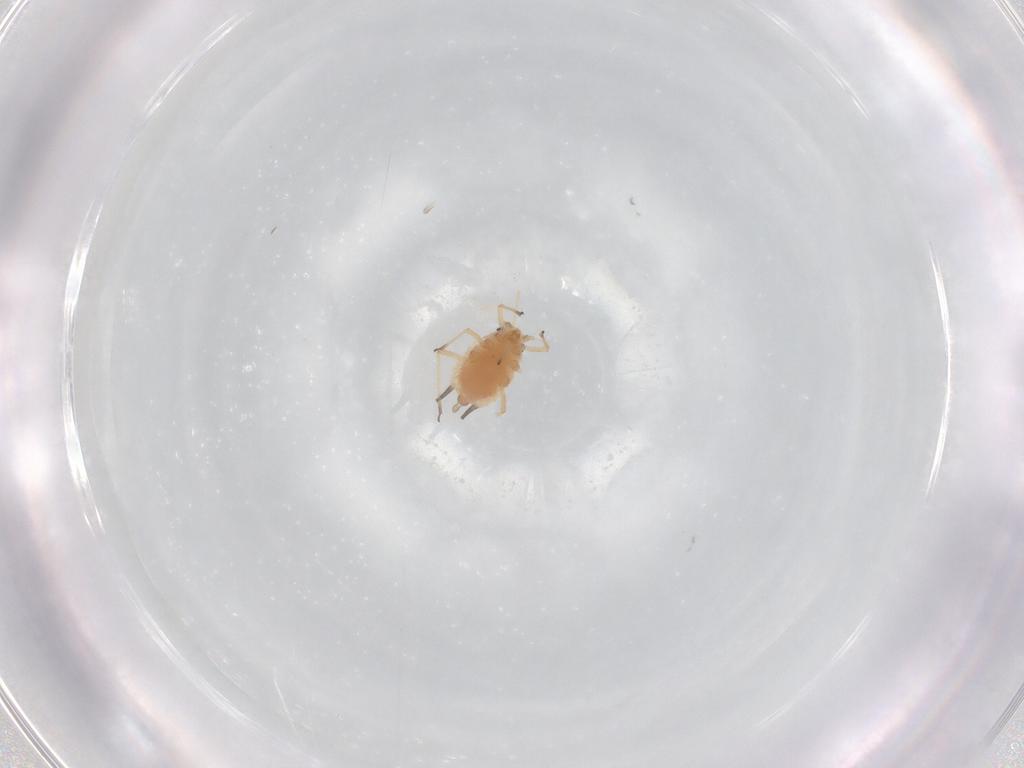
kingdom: Animalia
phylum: Arthropoda
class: Insecta
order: Hemiptera
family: Aphididae
